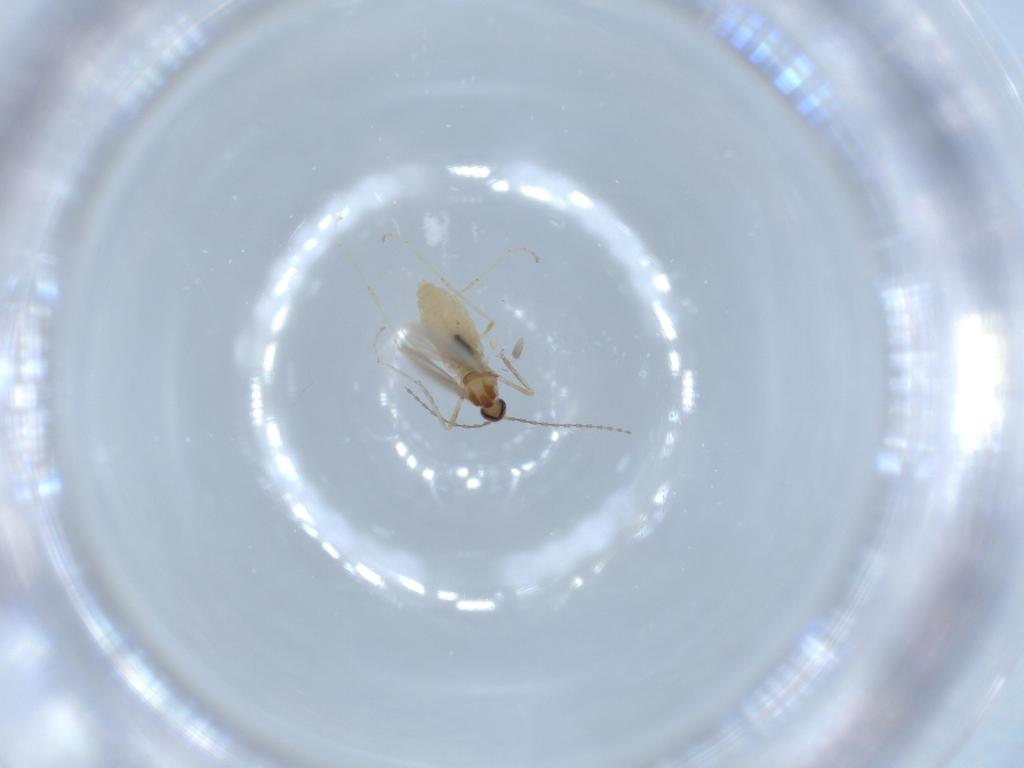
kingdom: Animalia
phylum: Arthropoda
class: Insecta
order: Diptera
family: Cecidomyiidae
